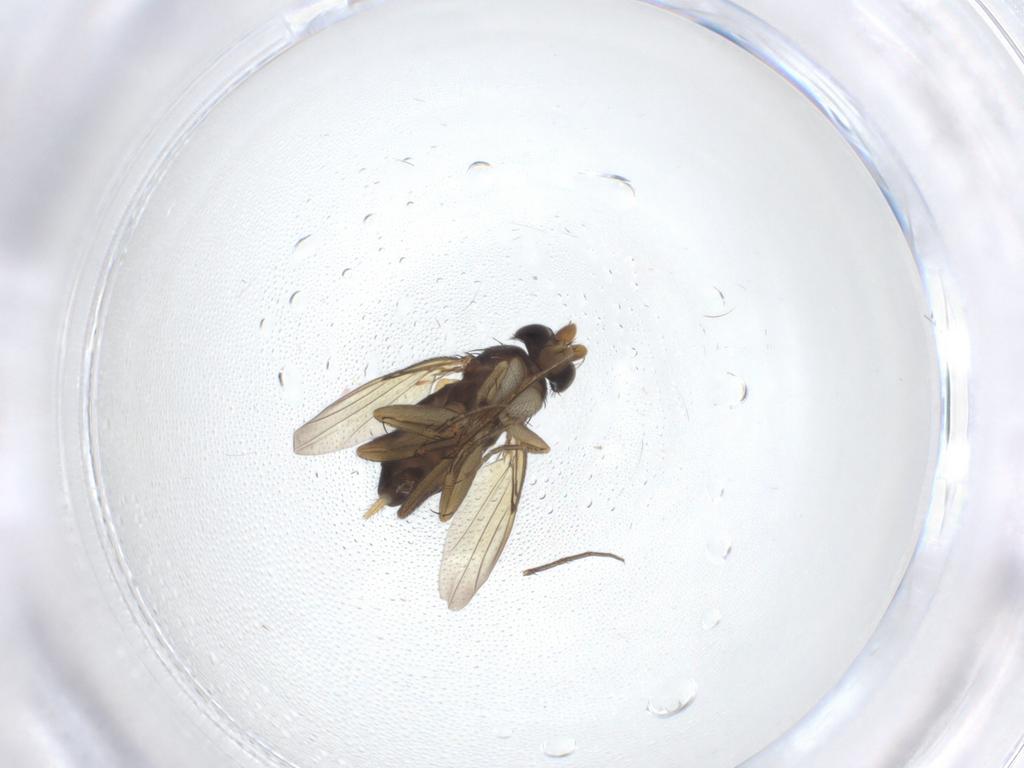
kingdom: Animalia
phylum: Arthropoda
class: Insecta
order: Diptera
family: Phoridae
